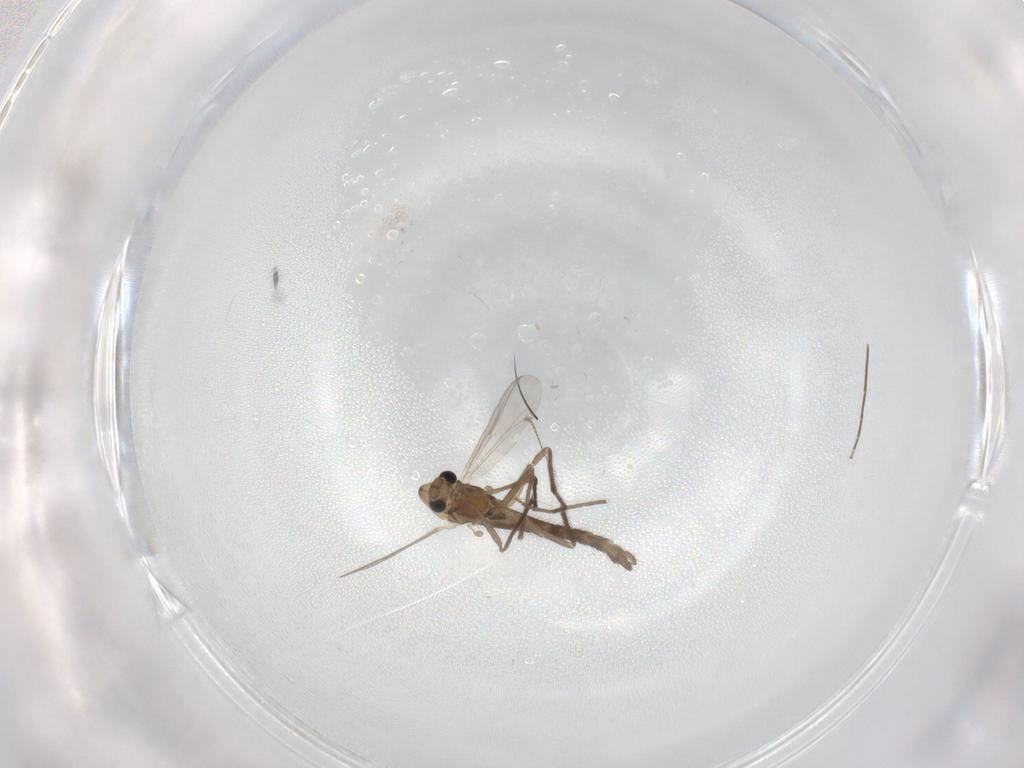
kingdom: Animalia
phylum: Arthropoda
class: Insecta
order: Diptera
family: Chironomidae
